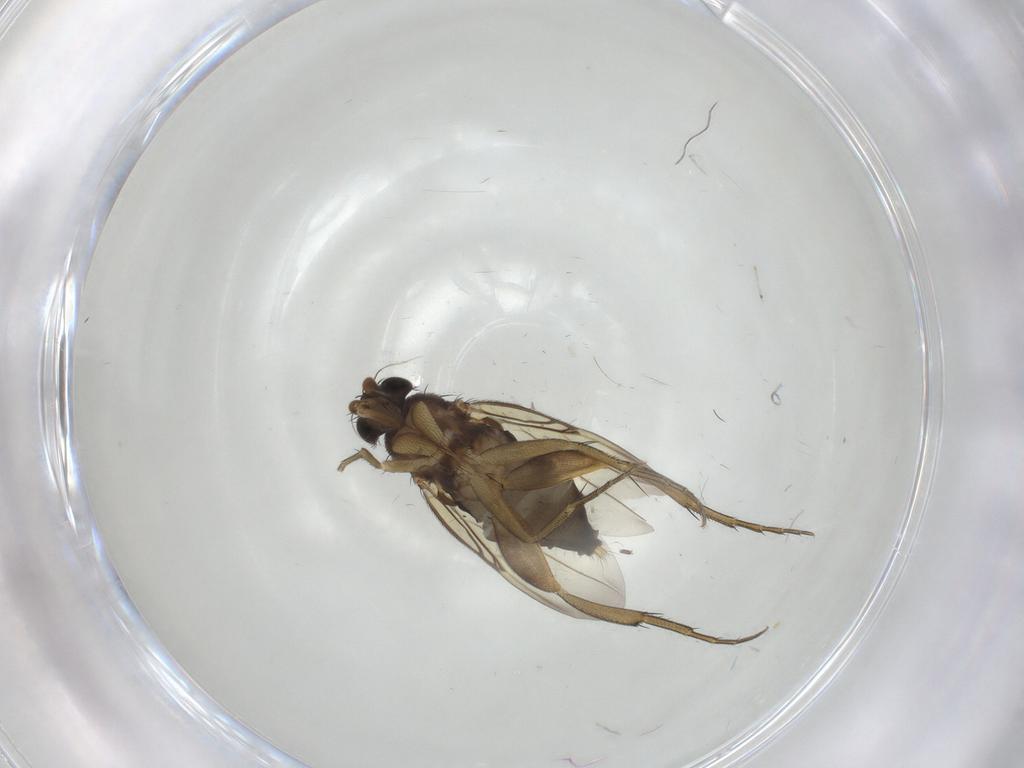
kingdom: Animalia
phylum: Arthropoda
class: Insecta
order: Diptera
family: Phoridae
